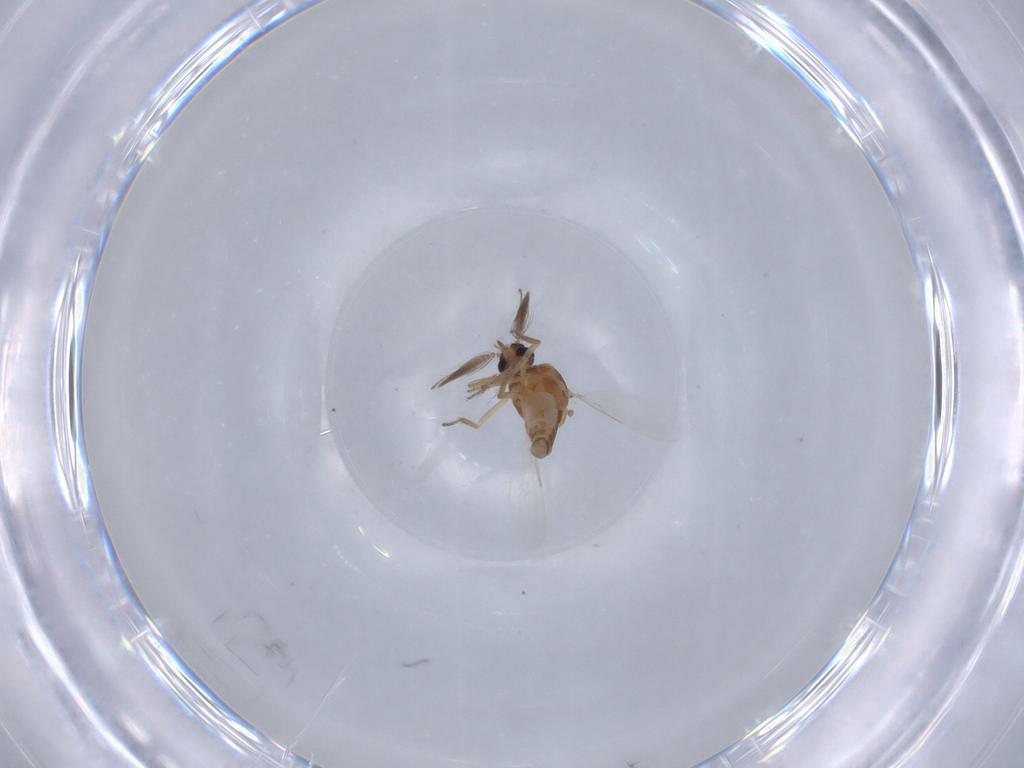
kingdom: Animalia
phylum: Arthropoda
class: Insecta
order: Diptera
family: Ceratopogonidae
